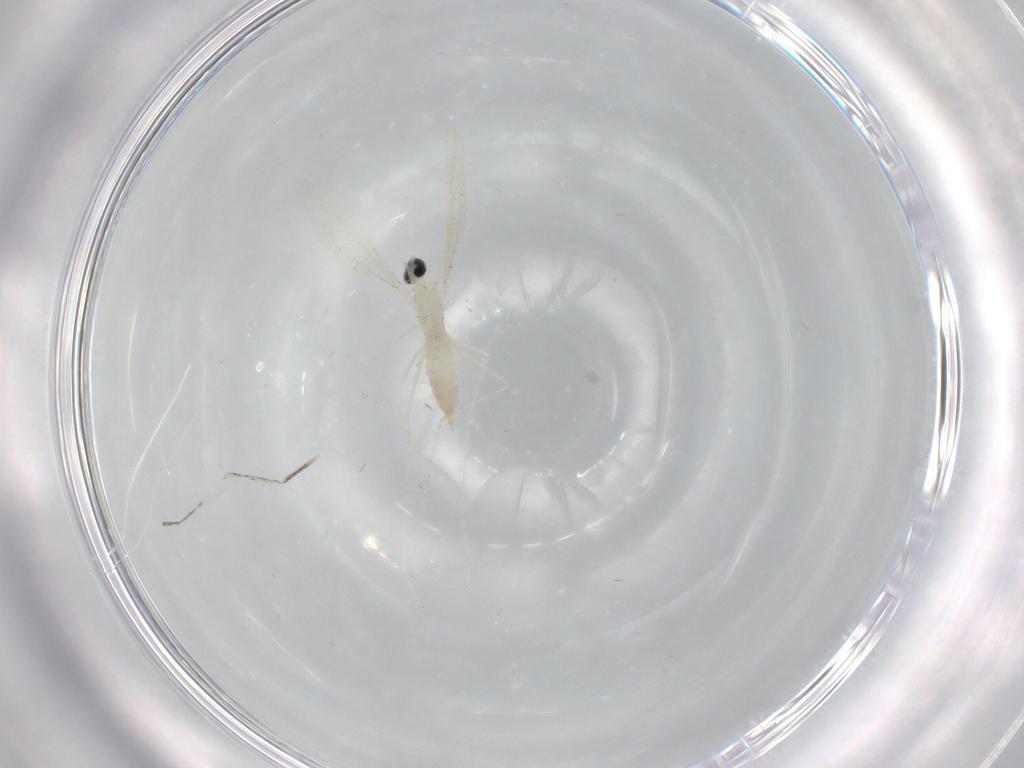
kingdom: Animalia
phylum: Arthropoda
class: Insecta
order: Diptera
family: Cecidomyiidae
